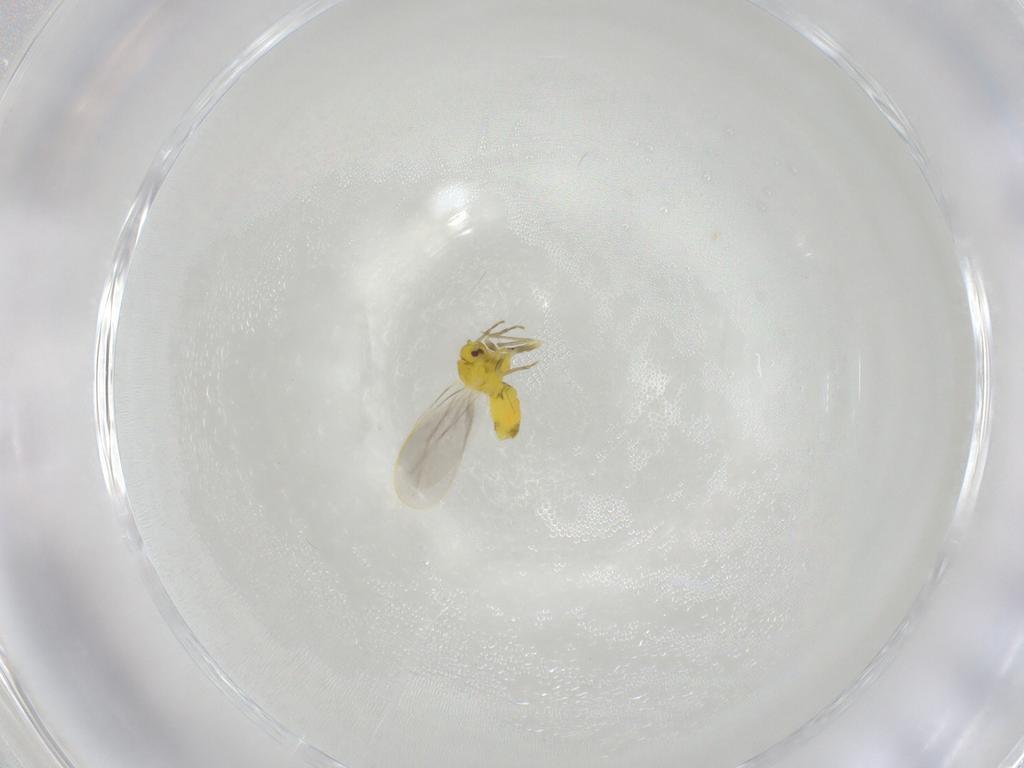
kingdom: Animalia
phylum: Arthropoda
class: Insecta
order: Hemiptera
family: Aleyrodidae
